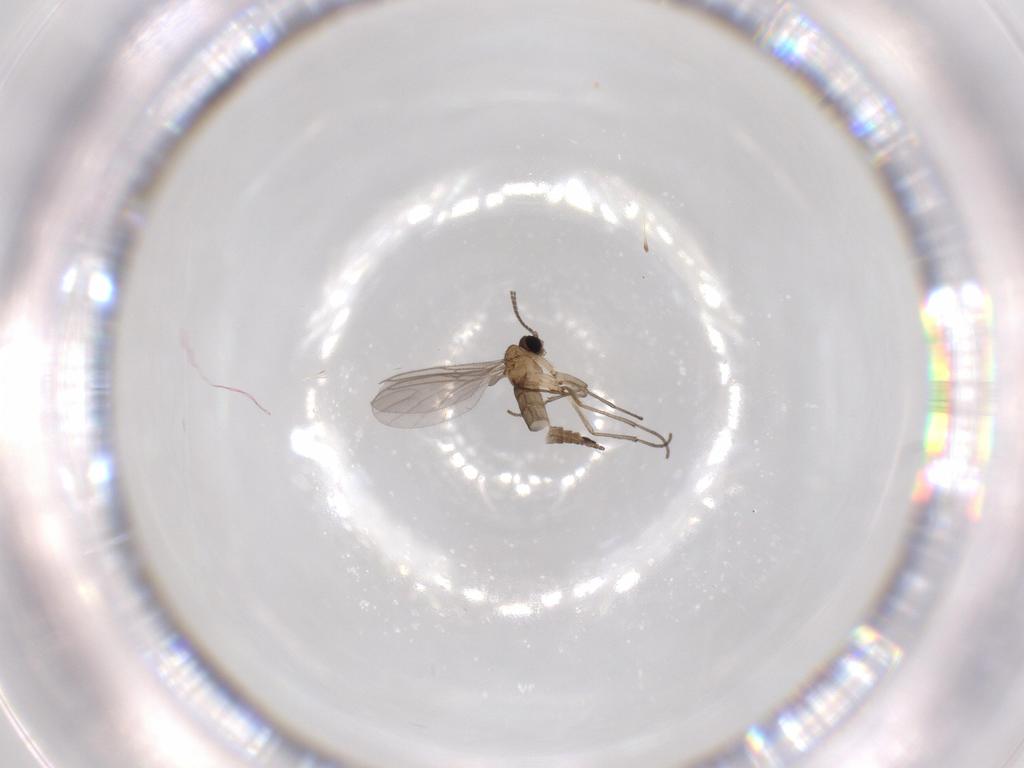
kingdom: Animalia
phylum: Arthropoda
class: Insecta
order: Diptera
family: Sciaridae
